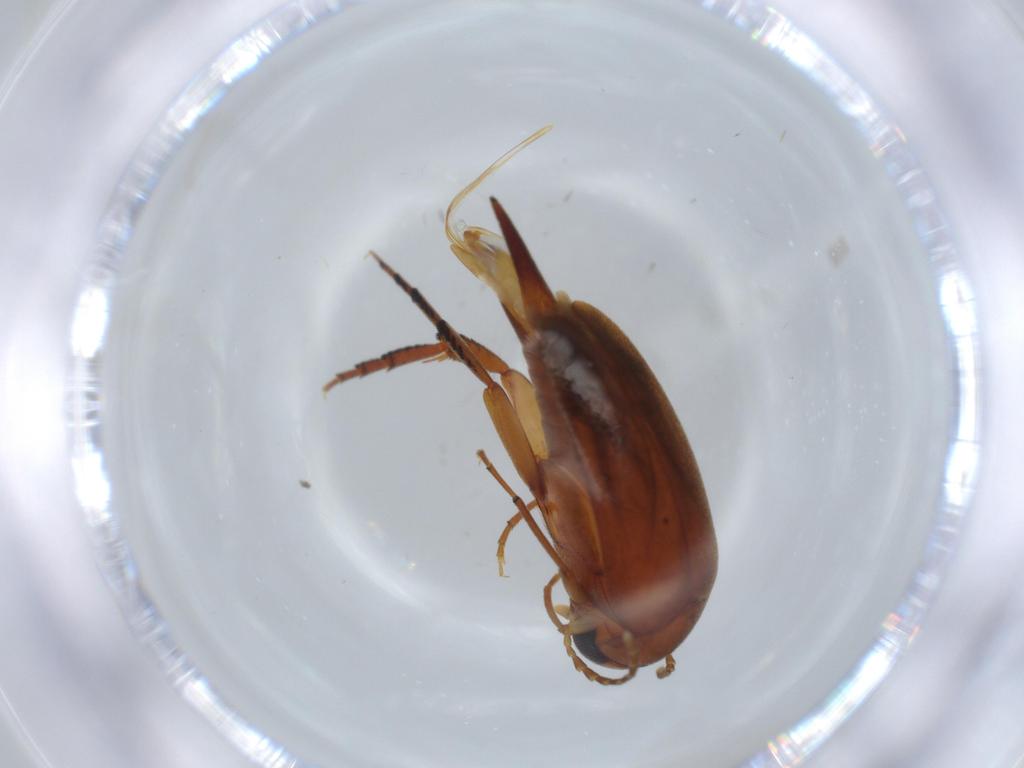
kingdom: Animalia
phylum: Arthropoda
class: Insecta
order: Coleoptera
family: Mordellidae
